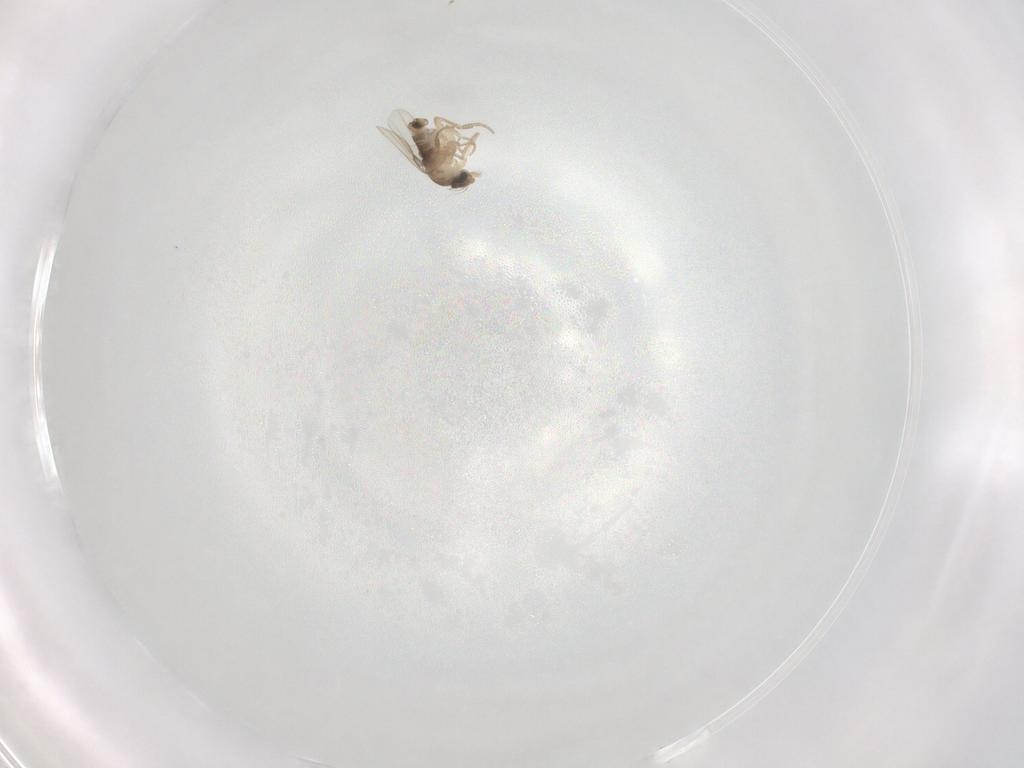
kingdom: Animalia
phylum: Arthropoda
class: Insecta
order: Diptera
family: Phoridae
